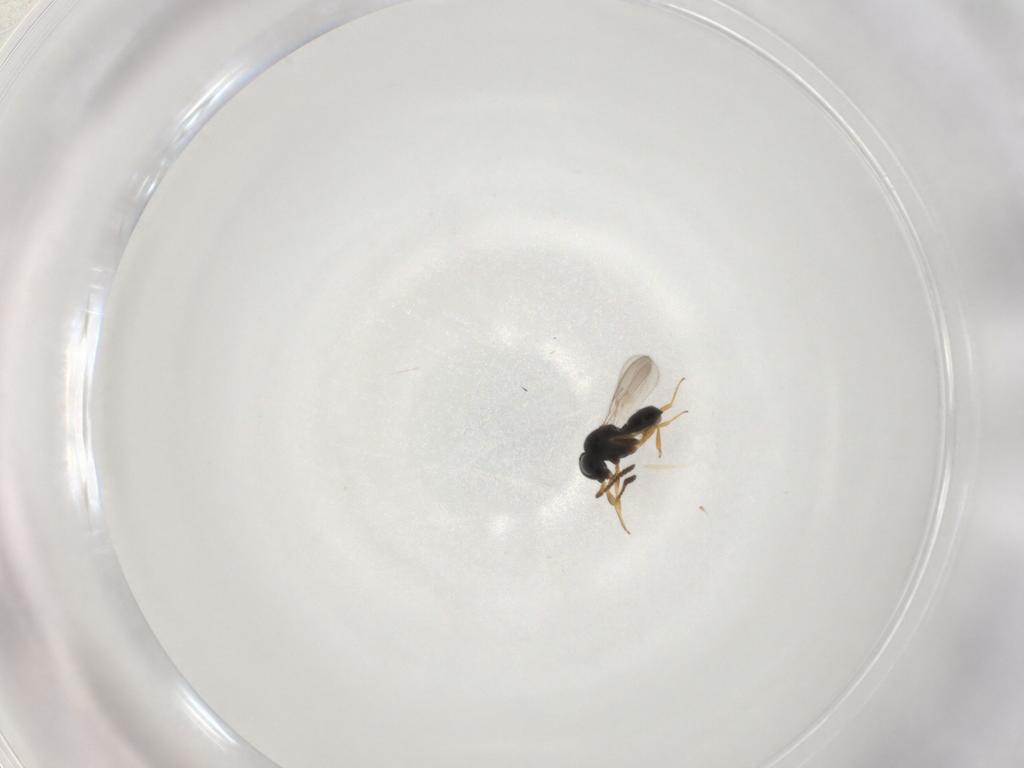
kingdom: Animalia
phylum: Arthropoda
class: Insecta
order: Hymenoptera
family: Scelionidae
